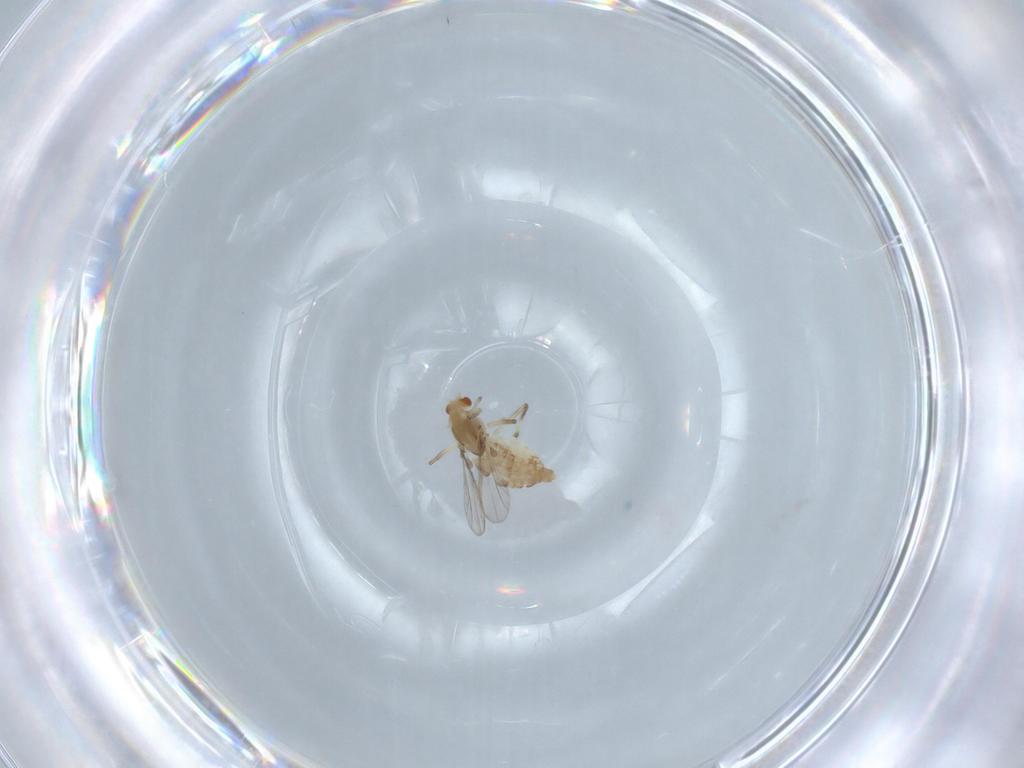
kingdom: Animalia
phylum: Arthropoda
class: Insecta
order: Diptera
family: Chironomidae
